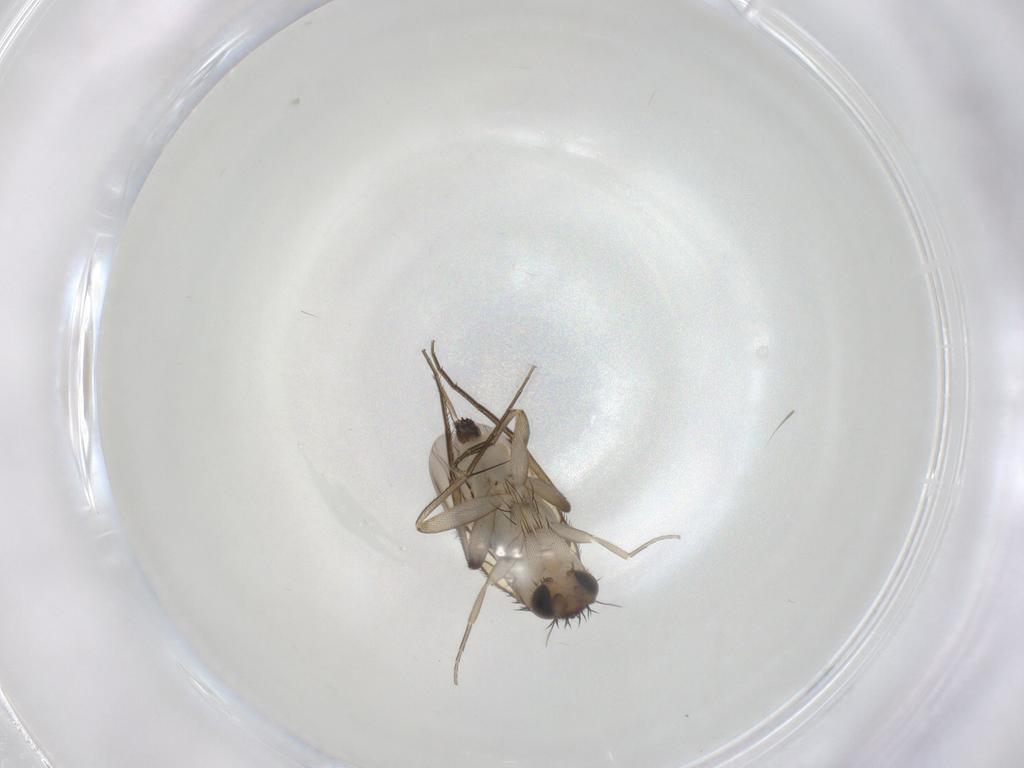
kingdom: Animalia
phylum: Arthropoda
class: Insecta
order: Diptera
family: Phoridae
